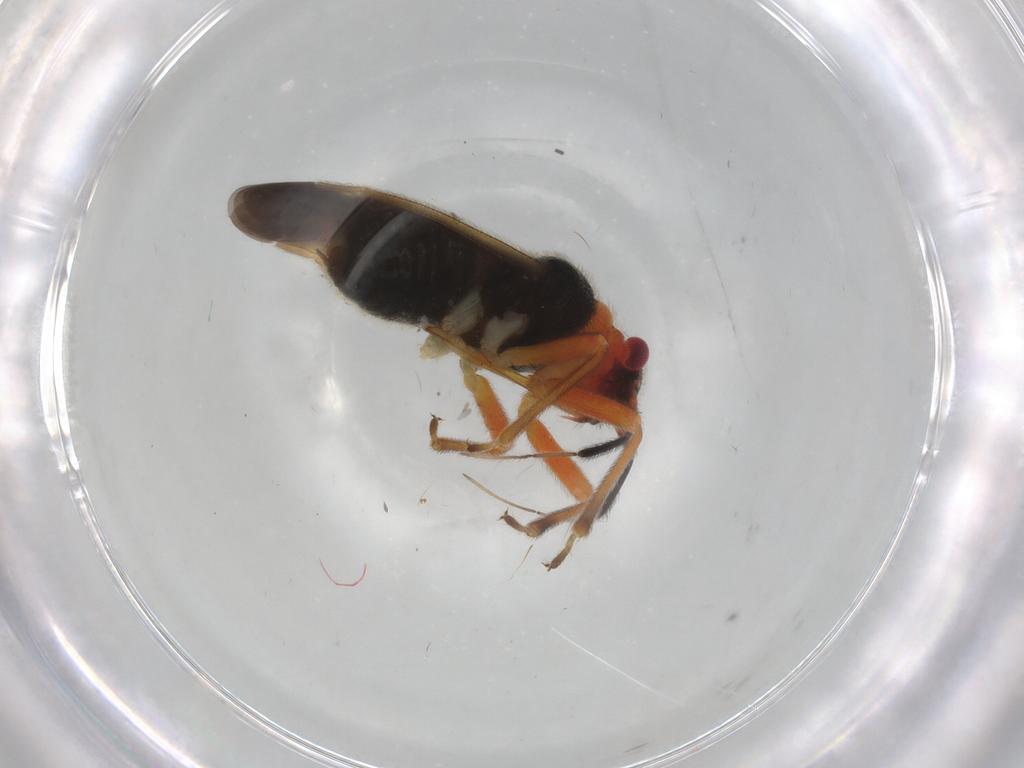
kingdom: Animalia
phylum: Arthropoda
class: Insecta
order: Hemiptera
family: Miridae
